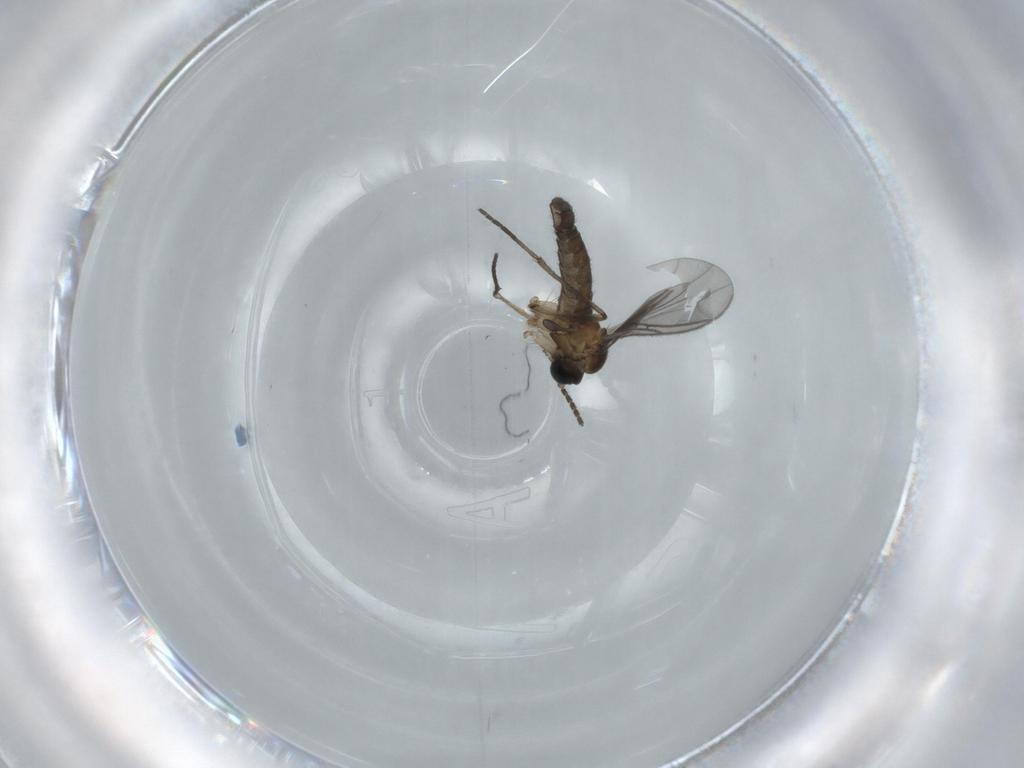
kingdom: Animalia
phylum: Arthropoda
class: Insecta
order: Diptera
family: Sciaridae
